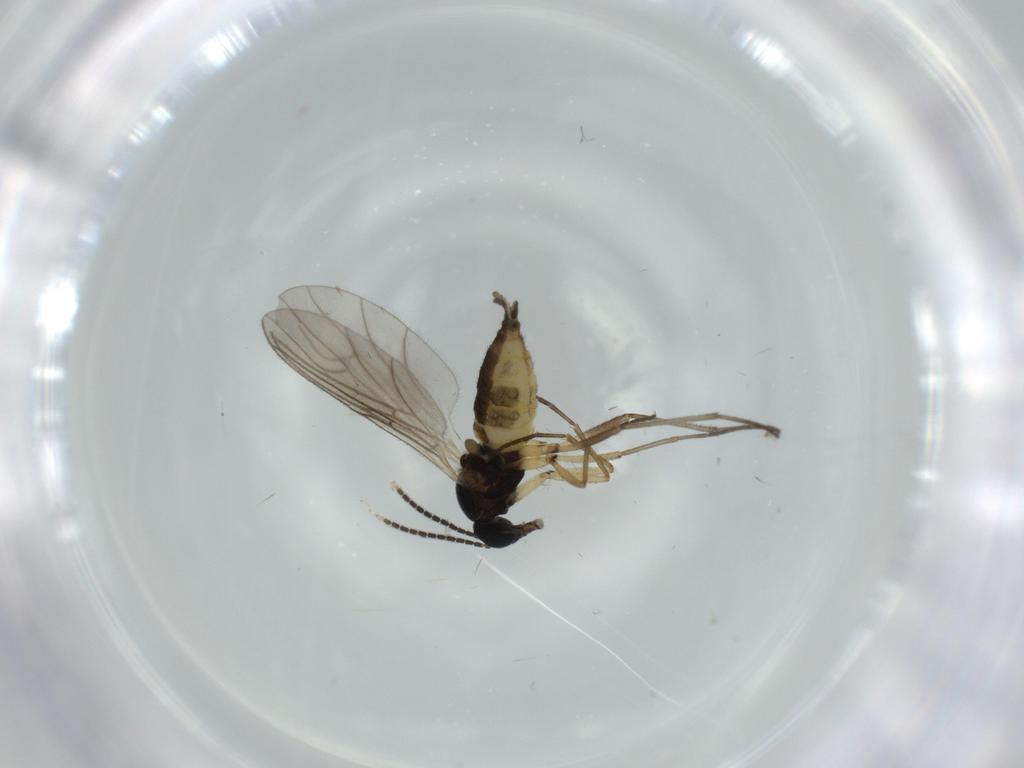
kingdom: Animalia
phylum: Arthropoda
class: Insecta
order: Diptera
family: Sciaridae
